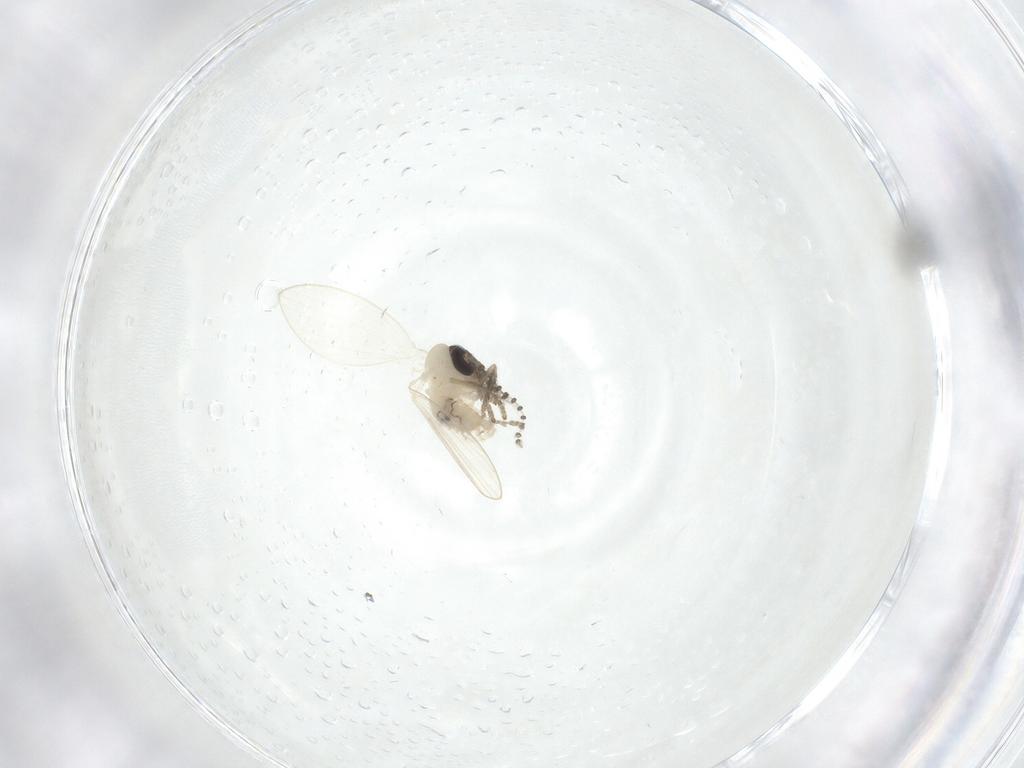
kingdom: Animalia
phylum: Arthropoda
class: Insecta
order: Diptera
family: Psychodidae
